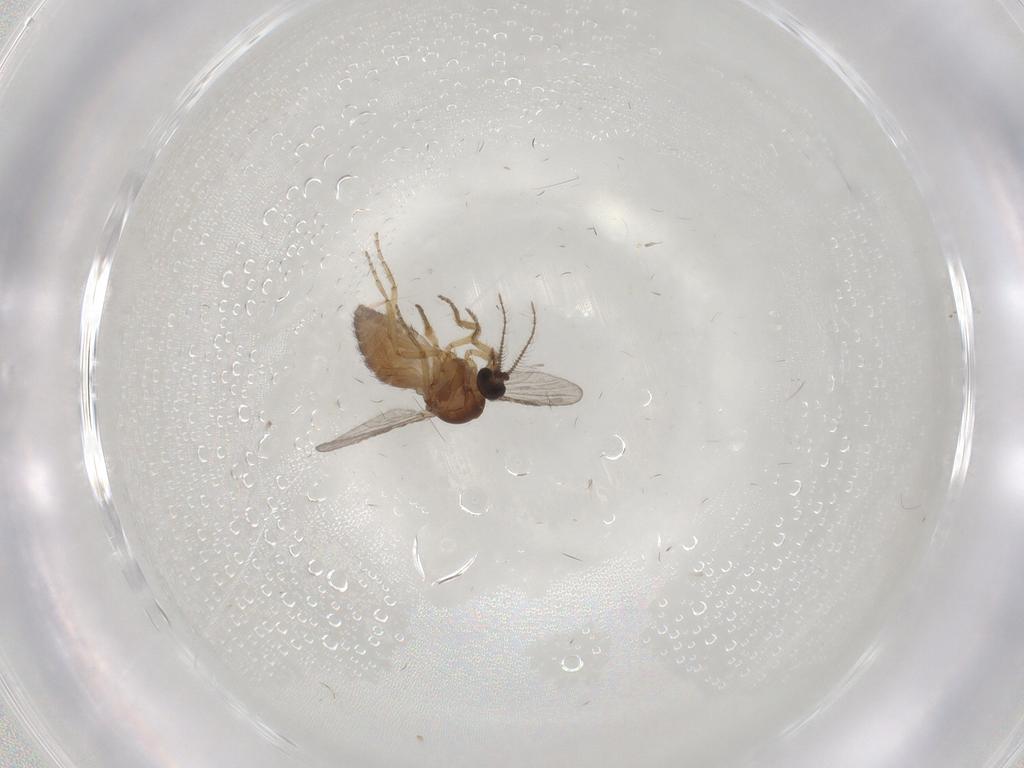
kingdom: Animalia
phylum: Arthropoda
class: Insecta
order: Diptera
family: Ceratopogonidae
